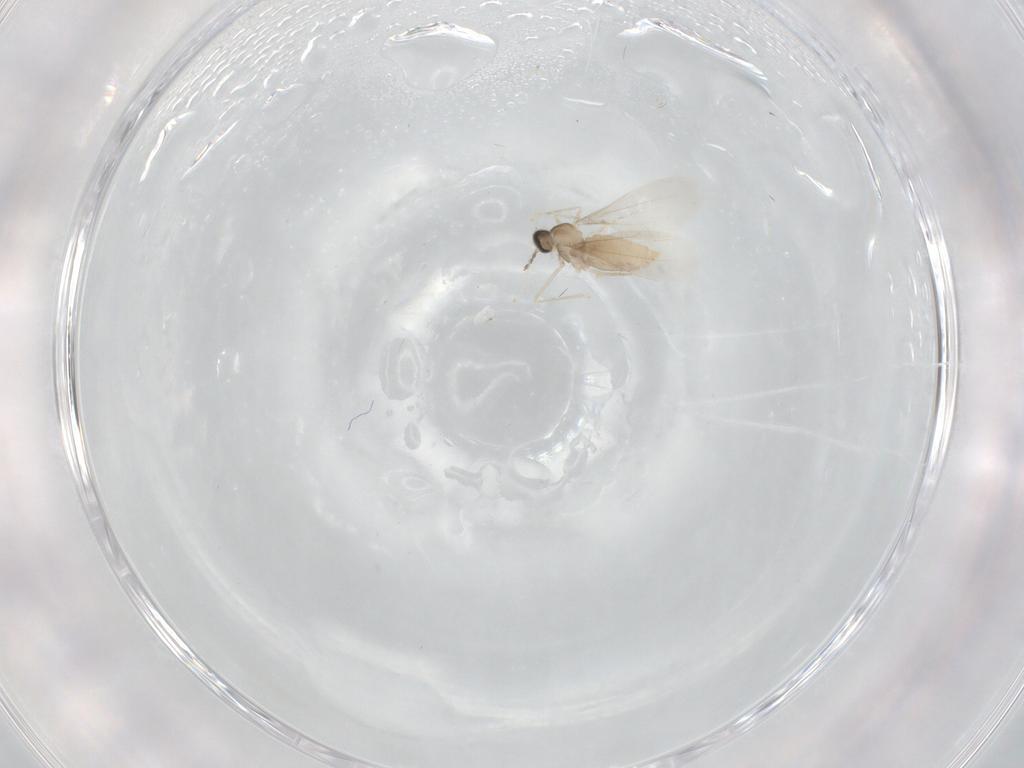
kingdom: Animalia
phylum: Arthropoda
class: Insecta
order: Diptera
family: Cecidomyiidae
